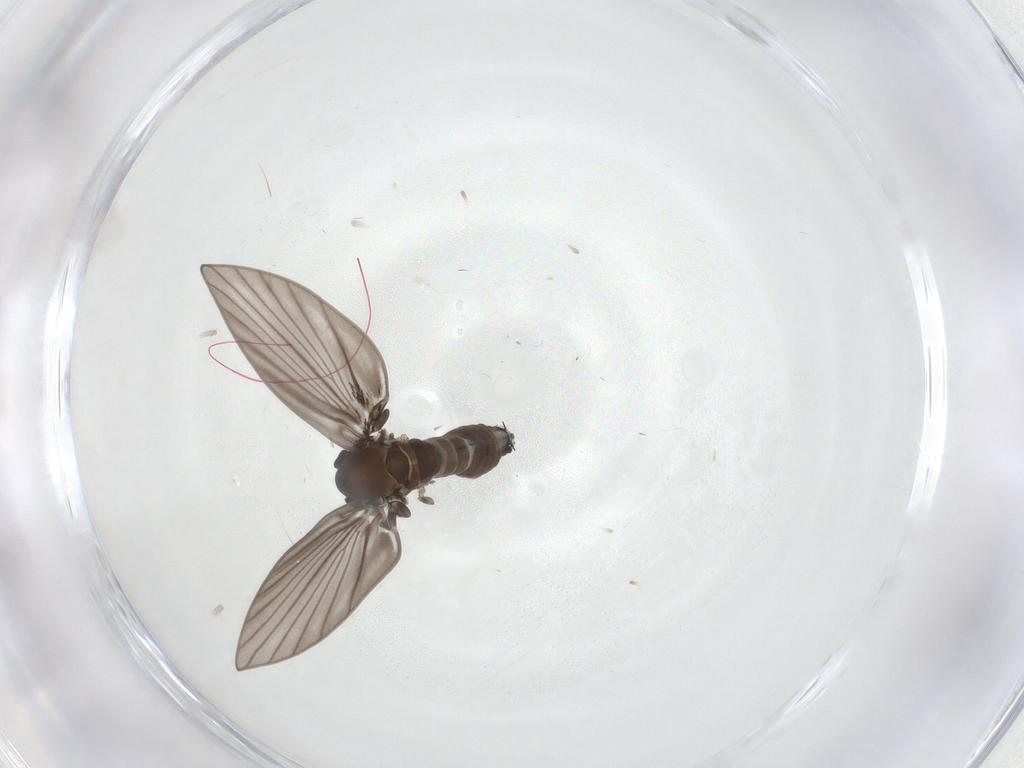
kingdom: Animalia
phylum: Arthropoda
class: Insecta
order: Diptera
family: Psychodidae
